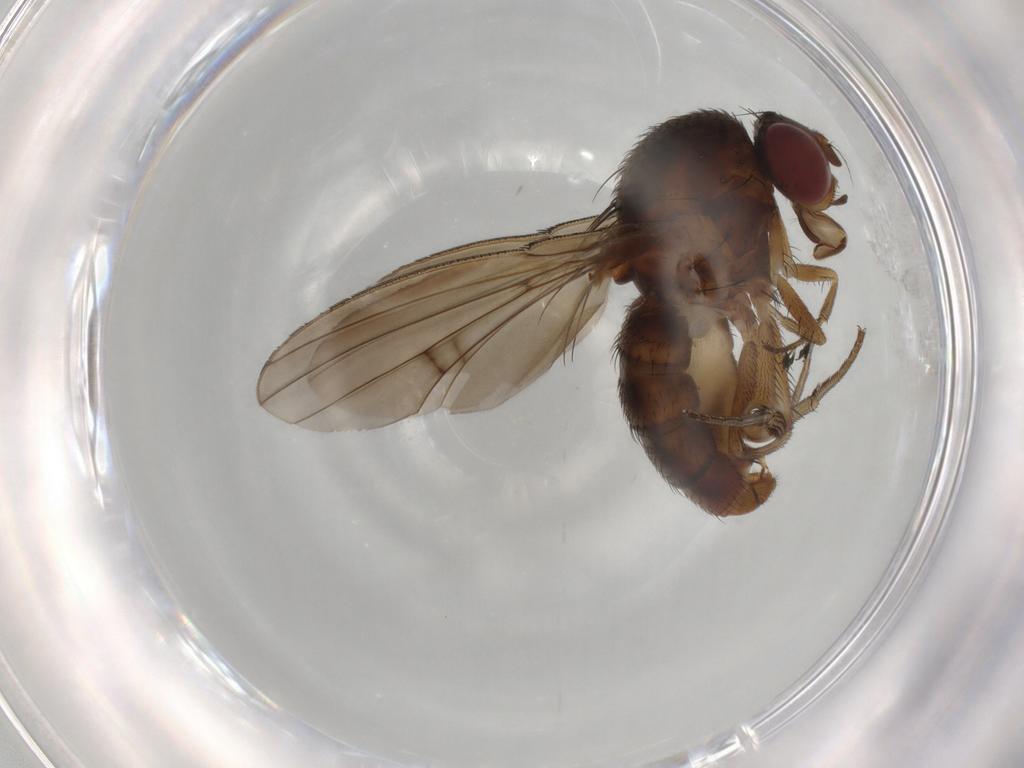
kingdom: Animalia
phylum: Arthropoda
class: Insecta
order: Diptera
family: Curtonotidae
